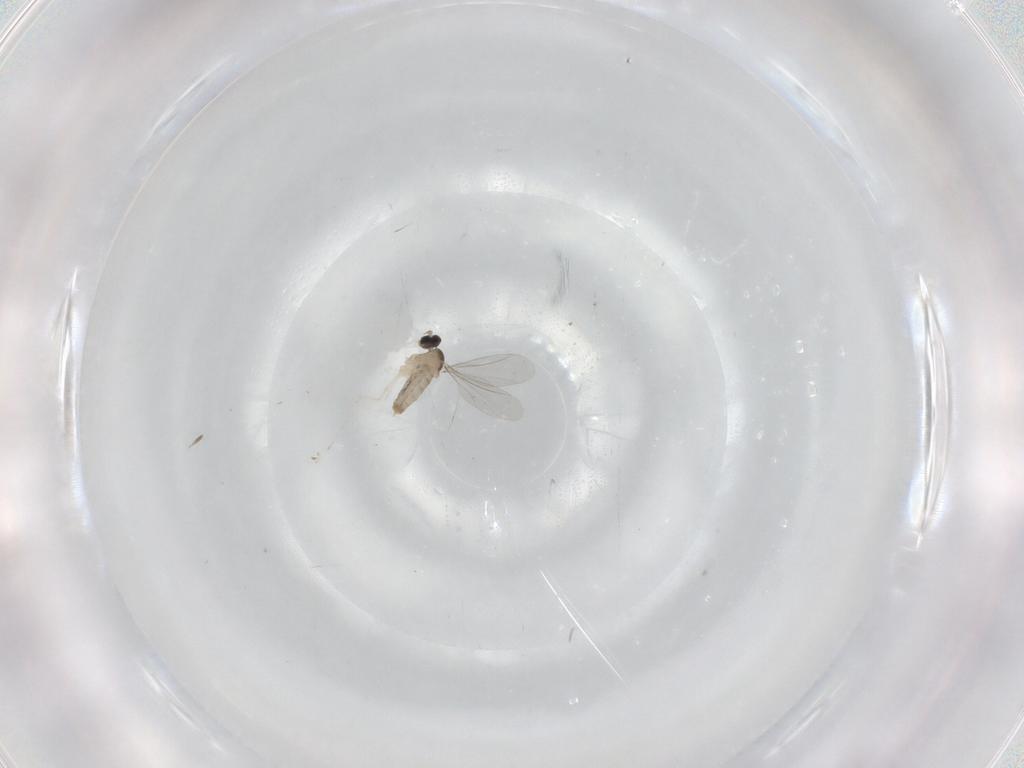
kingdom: Animalia
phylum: Arthropoda
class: Insecta
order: Diptera
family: Cecidomyiidae
